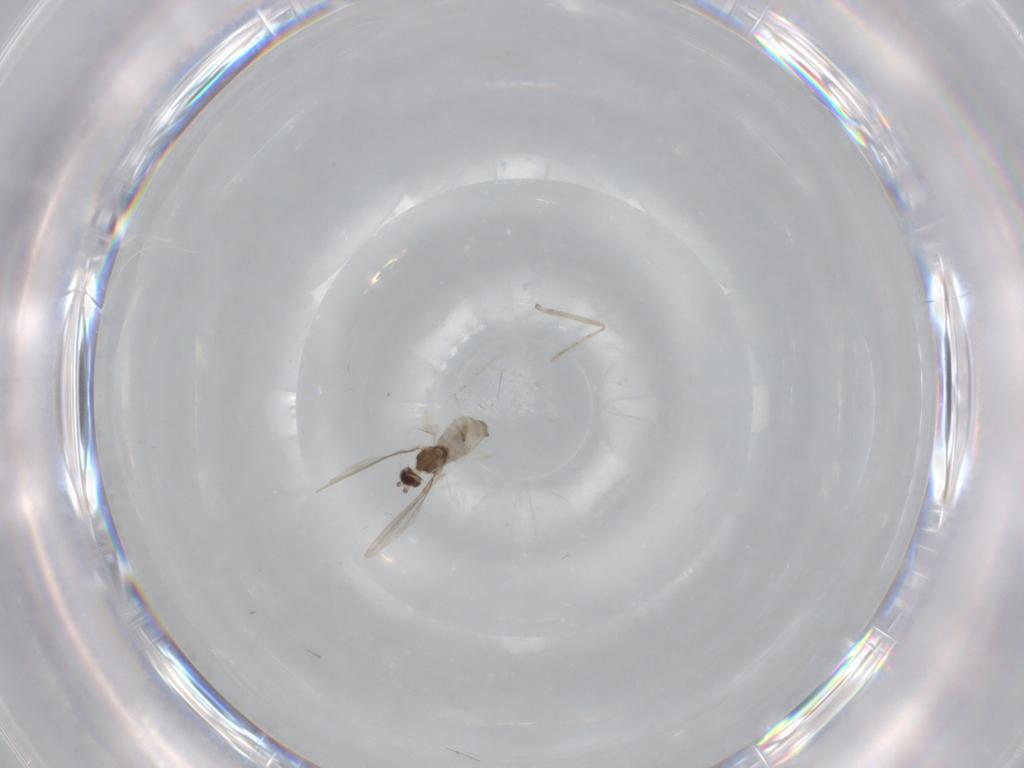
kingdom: Animalia
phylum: Arthropoda
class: Insecta
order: Diptera
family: Cecidomyiidae
